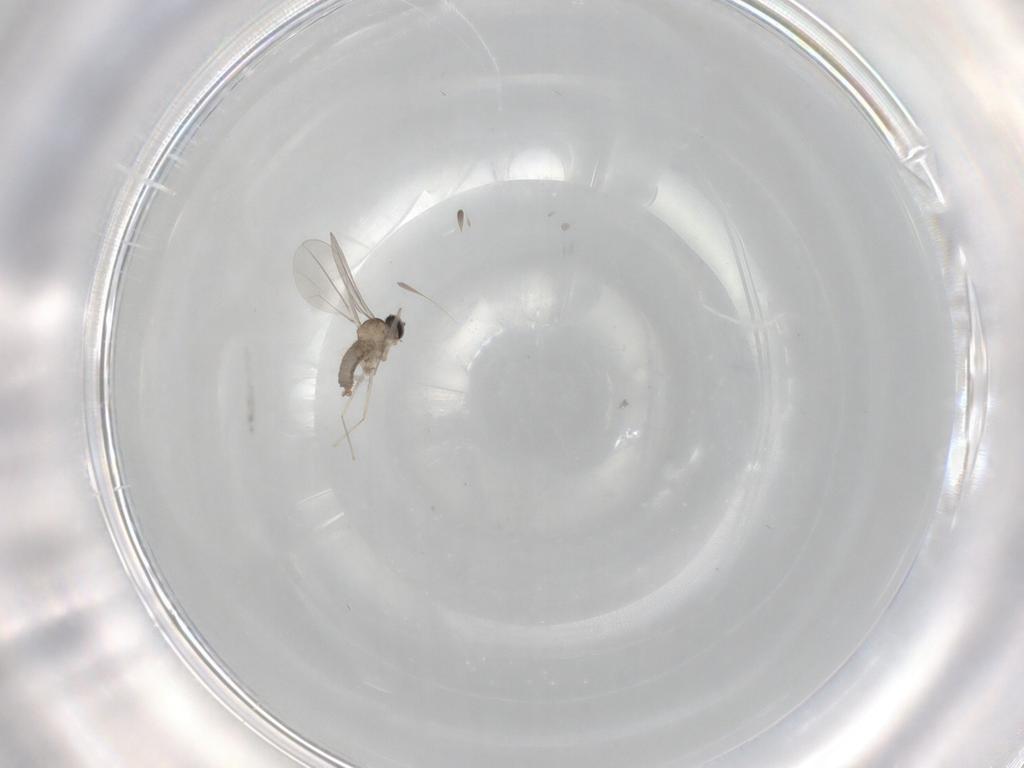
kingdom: Animalia
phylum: Arthropoda
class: Insecta
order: Diptera
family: Cecidomyiidae
